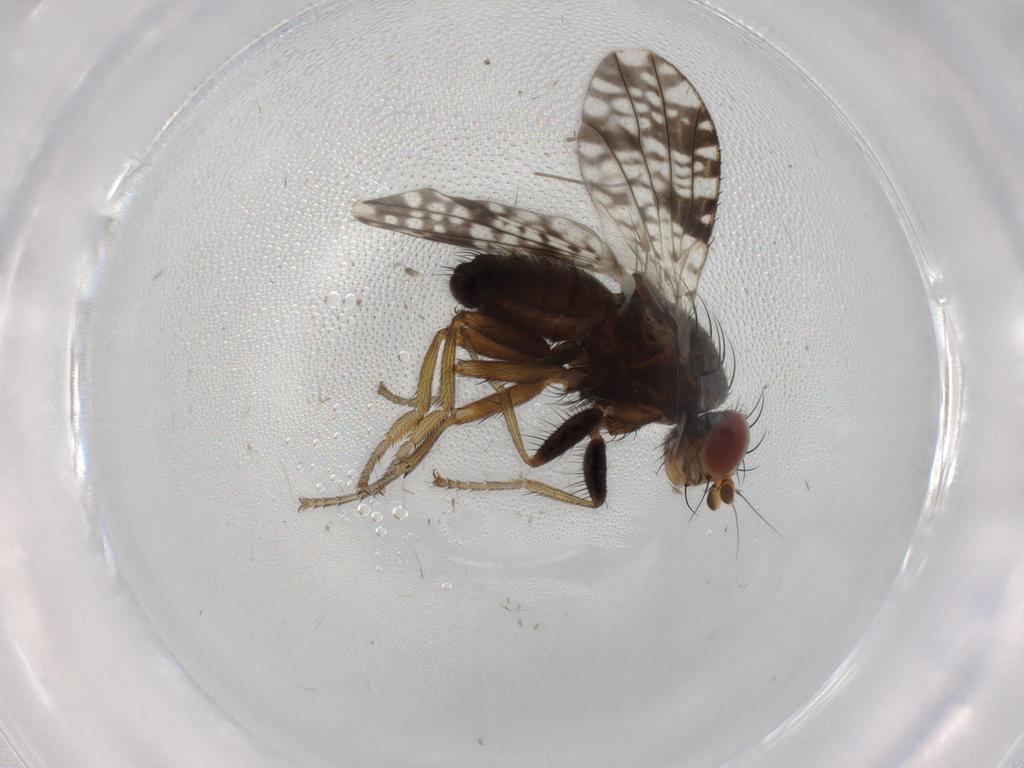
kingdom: Animalia
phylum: Arthropoda
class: Insecta
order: Diptera
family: Tephritidae
